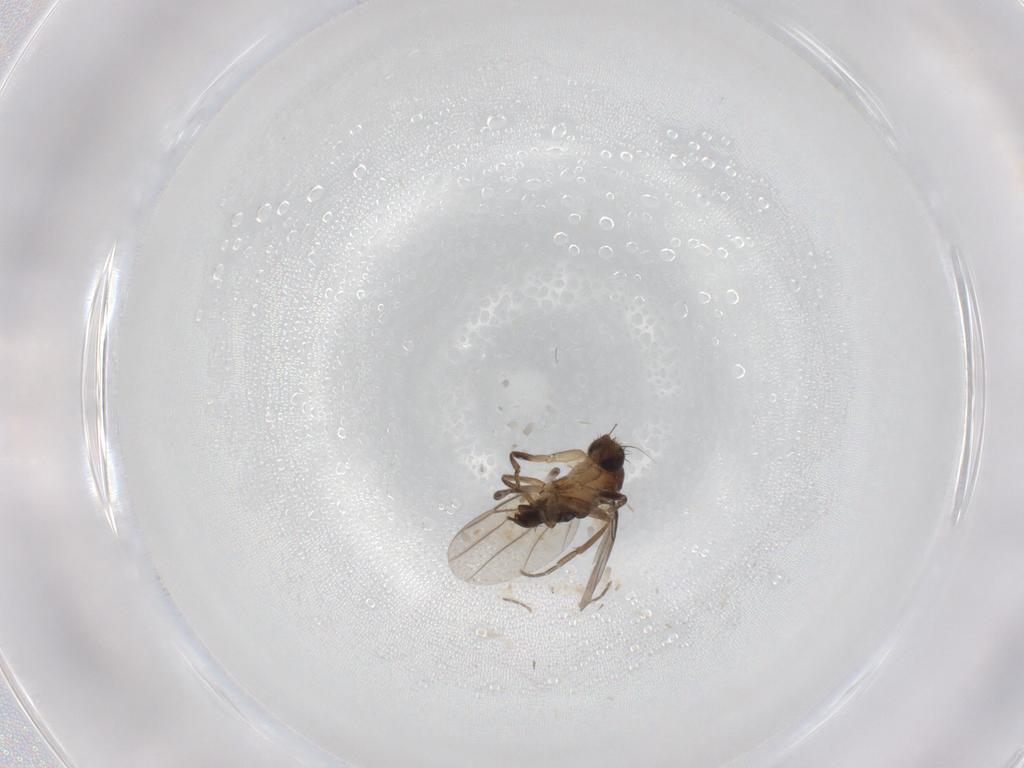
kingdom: Animalia
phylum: Arthropoda
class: Insecta
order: Diptera
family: Phoridae
